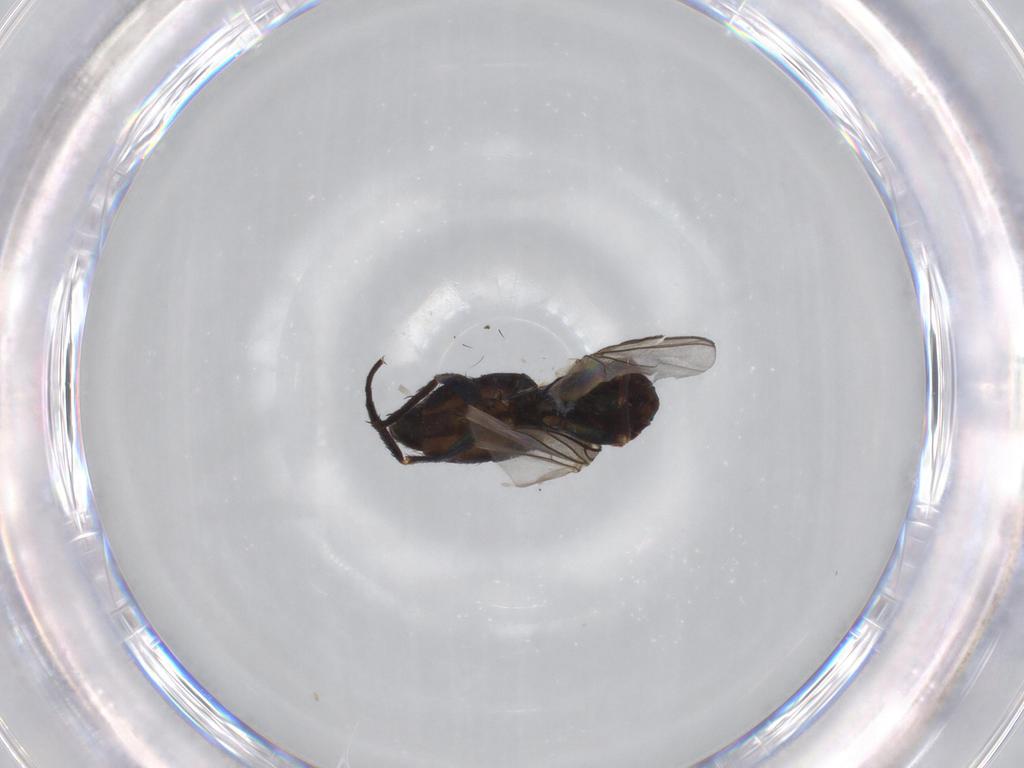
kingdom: Animalia
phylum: Arthropoda
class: Insecta
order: Diptera
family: Dolichopodidae
